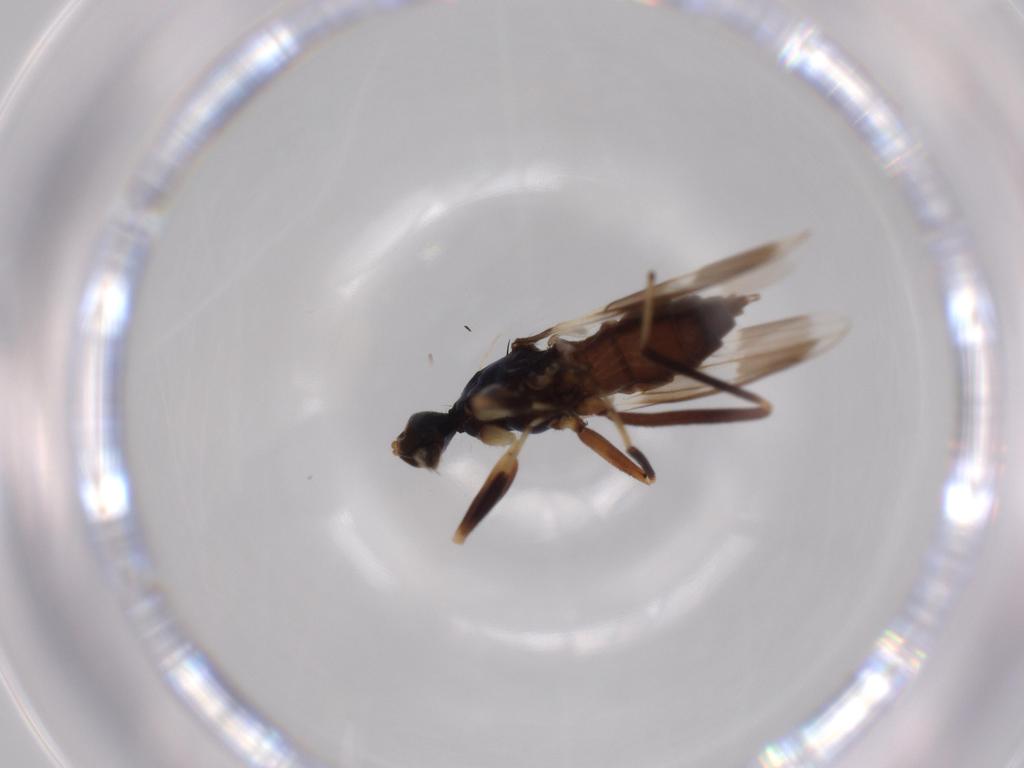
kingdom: Animalia
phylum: Arthropoda
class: Insecta
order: Diptera
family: Hybotidae
